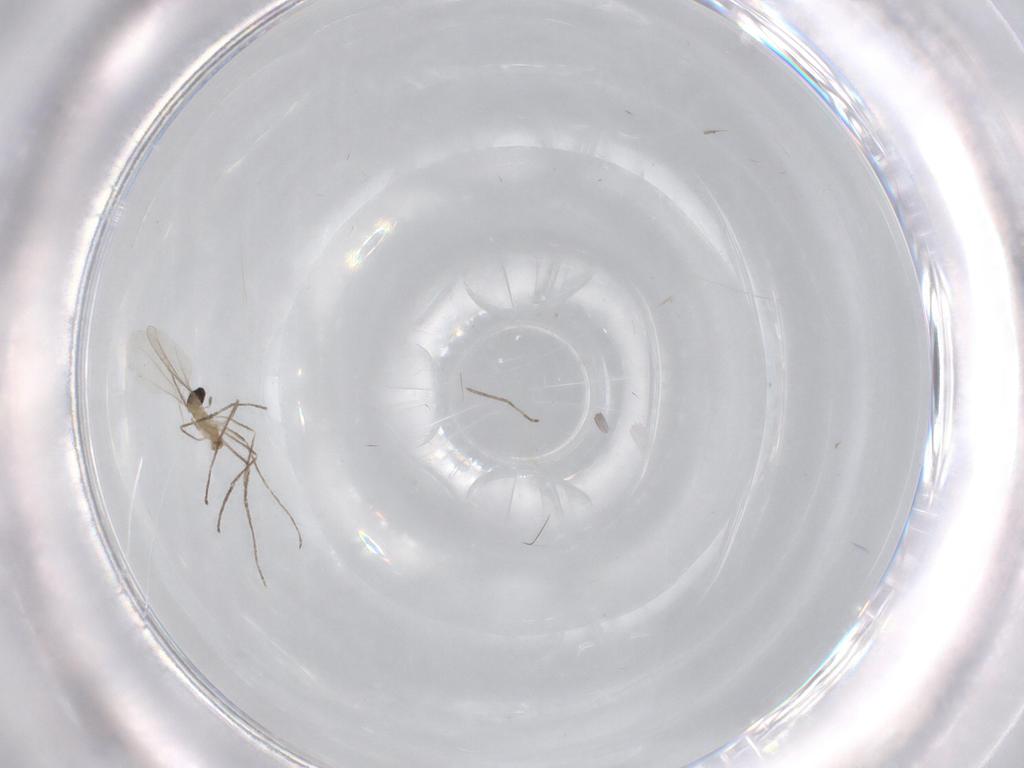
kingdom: Animalia
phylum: Arthropoda
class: Insecta
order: Diptera
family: Cecidomyiidae
